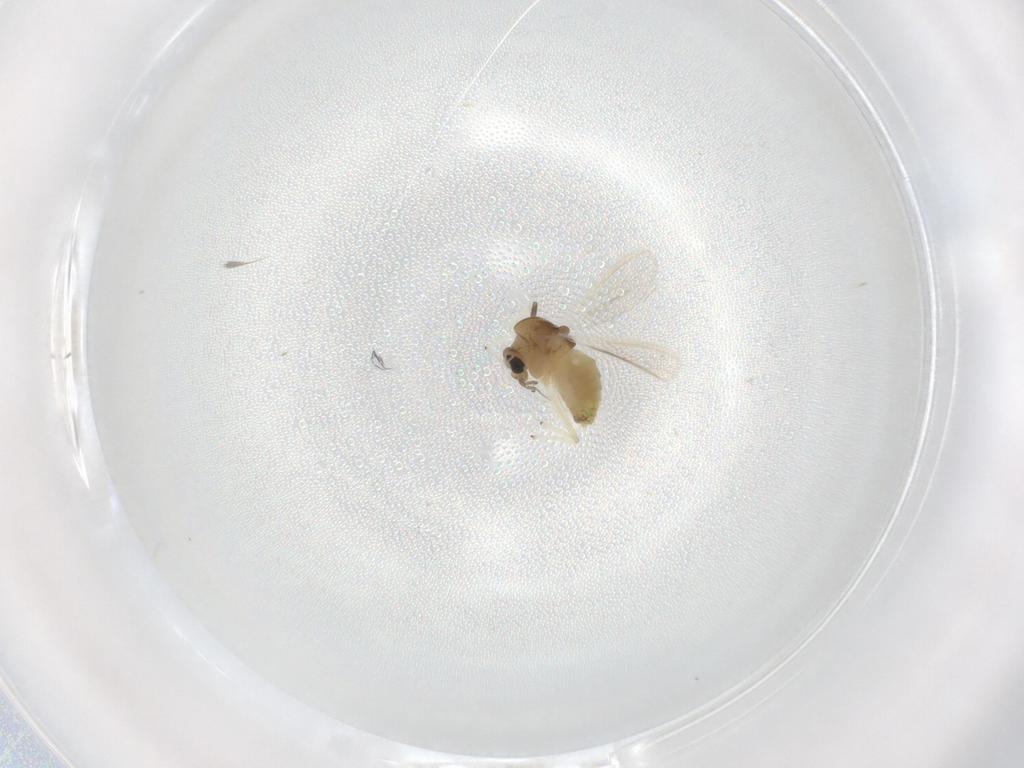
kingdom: Animalia
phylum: Arthropoda
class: Insecta
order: Diptera
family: Chironomidae
